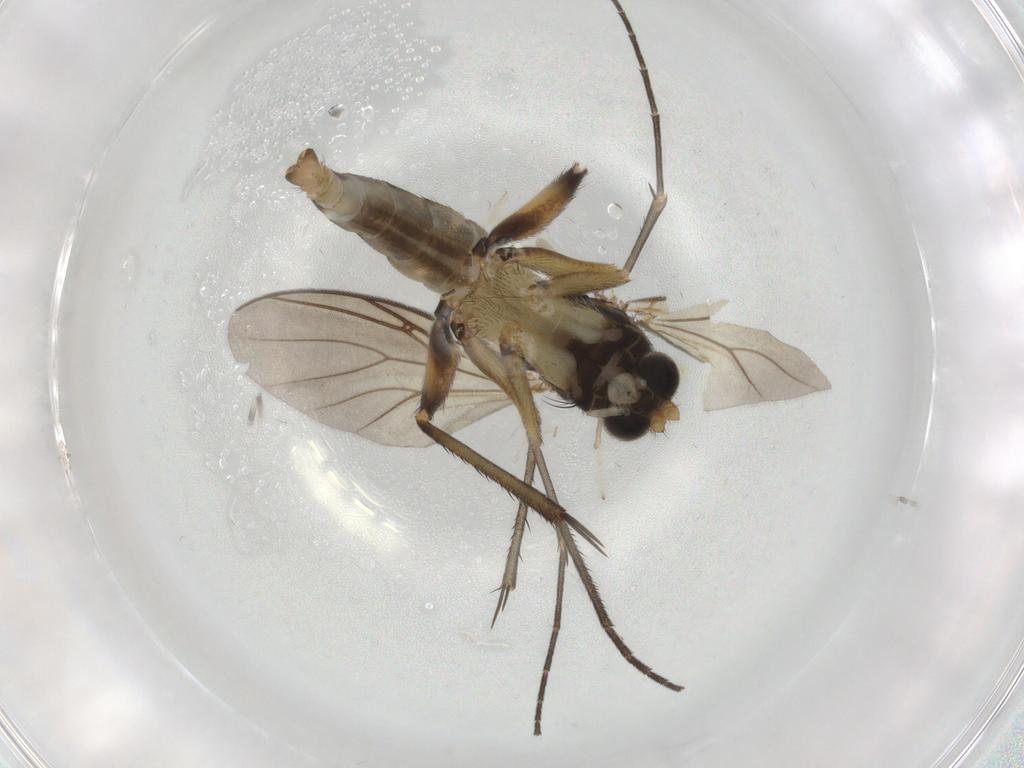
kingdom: Animalia
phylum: Arthropoda
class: Insecta
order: Diptera
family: Mycetophilidae
